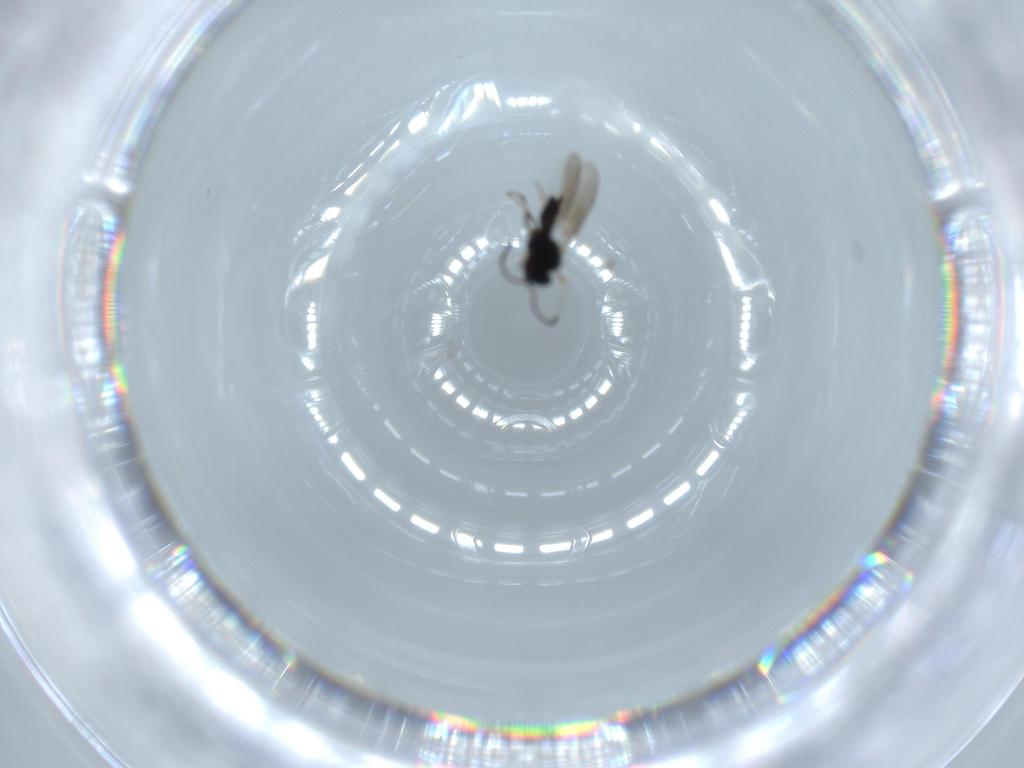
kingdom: Animalia
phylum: Arthropoda
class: Insecta
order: Hymenoptera
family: Scelionidae
